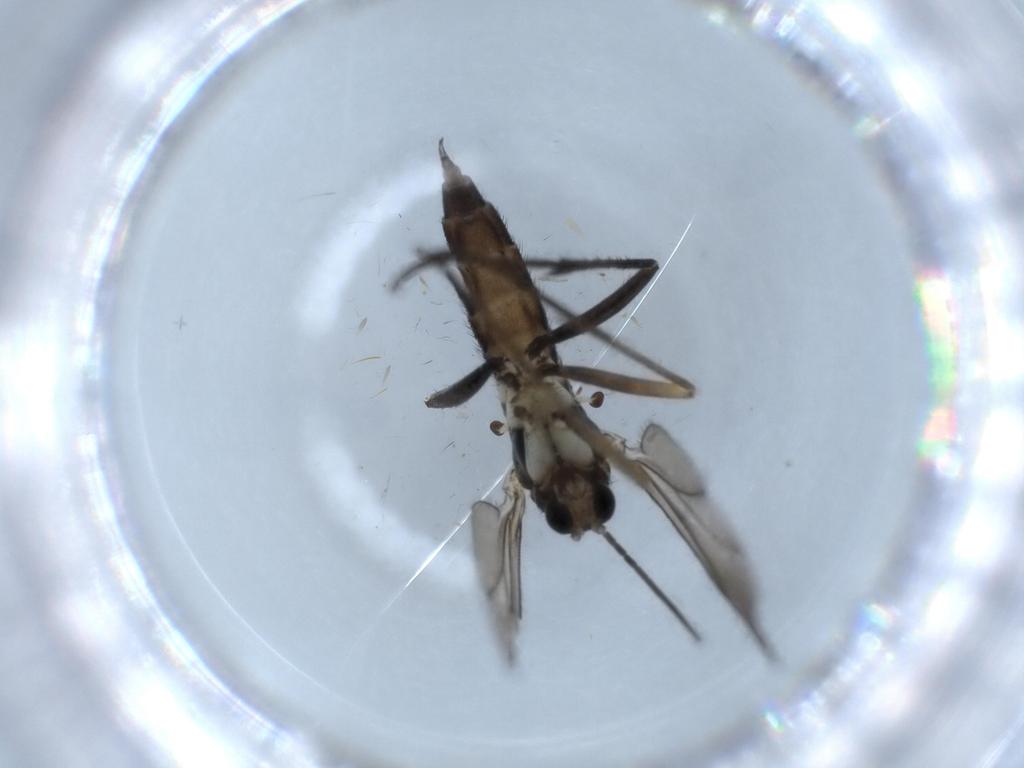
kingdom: Animalia
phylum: Arthropoda
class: Insecta
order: Diptera
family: Sciaridae
